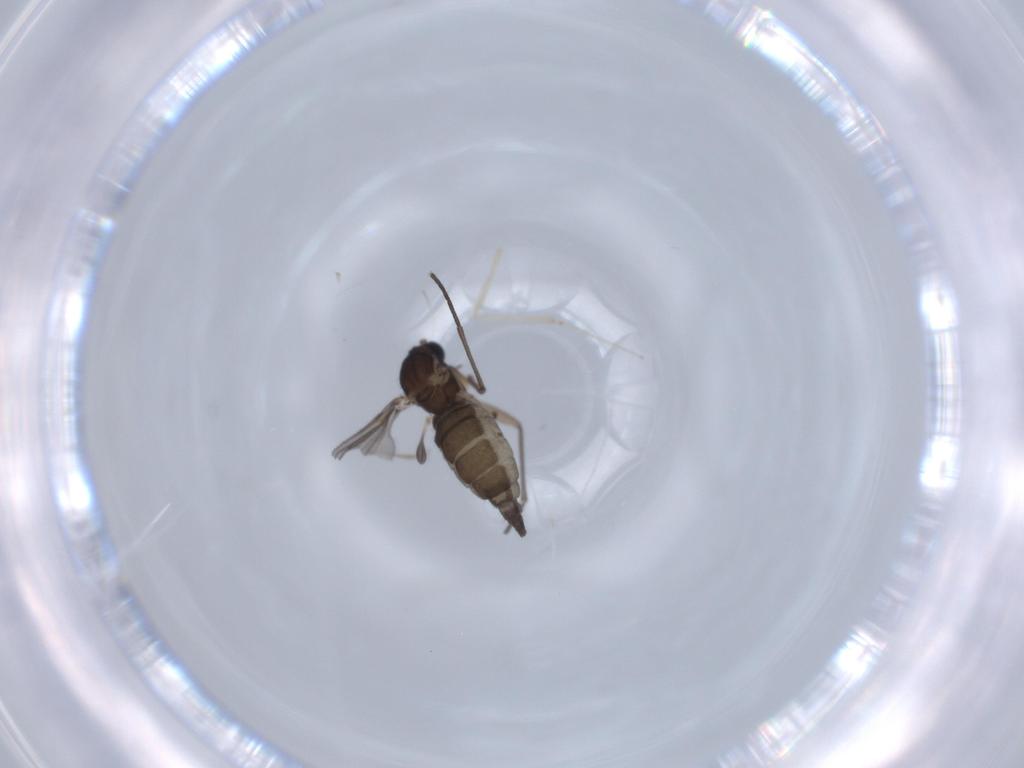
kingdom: Animalia
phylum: Arthropoda
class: Insecta
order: Diptera
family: Sciaridae
